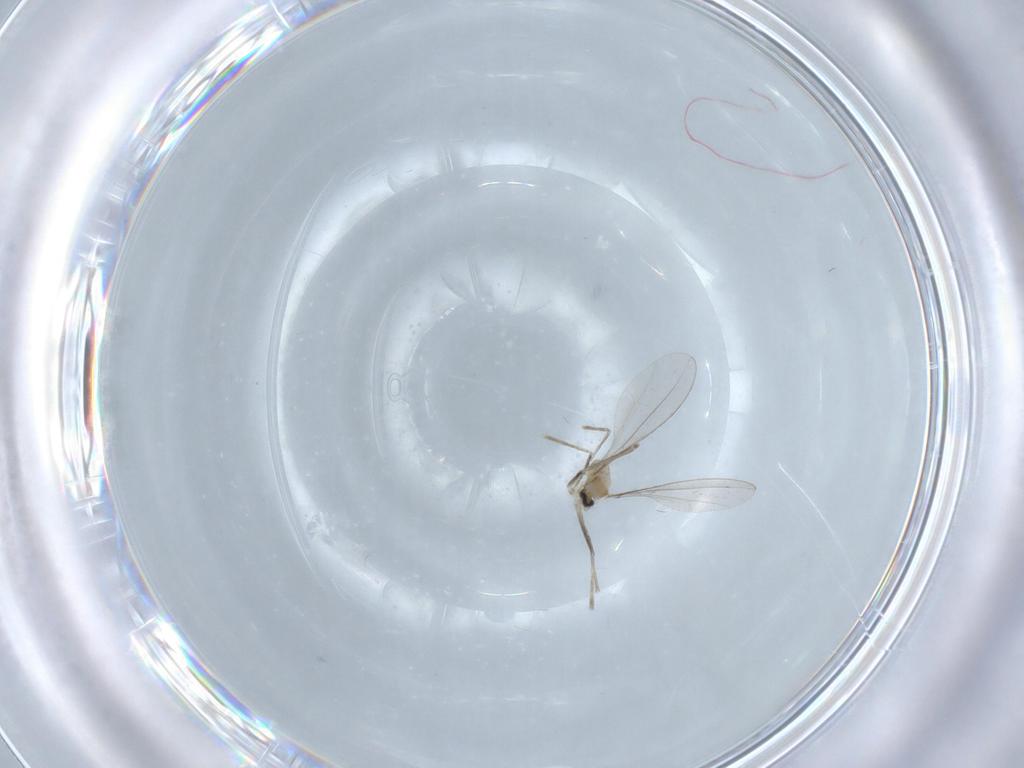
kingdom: Animalia
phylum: Arthropoda
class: Insecta
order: Diptera
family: Cecidomyiidae
